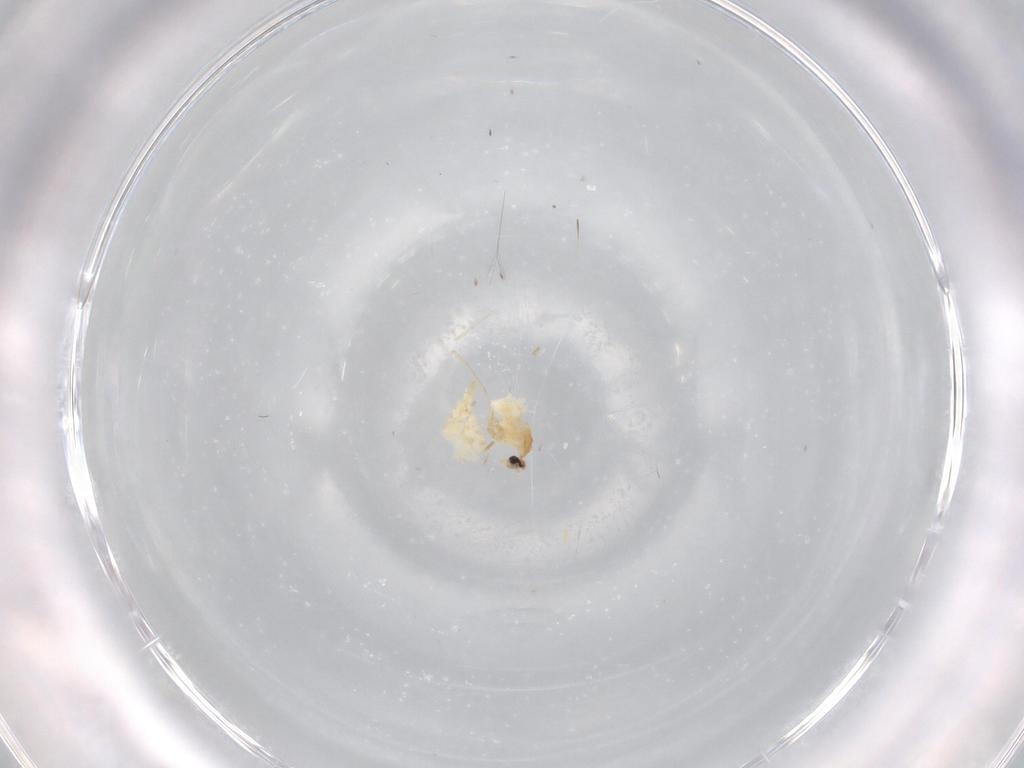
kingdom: Animalia
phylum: Arthropoda
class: Insecta
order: Diptera
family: Cecidomyiidae
